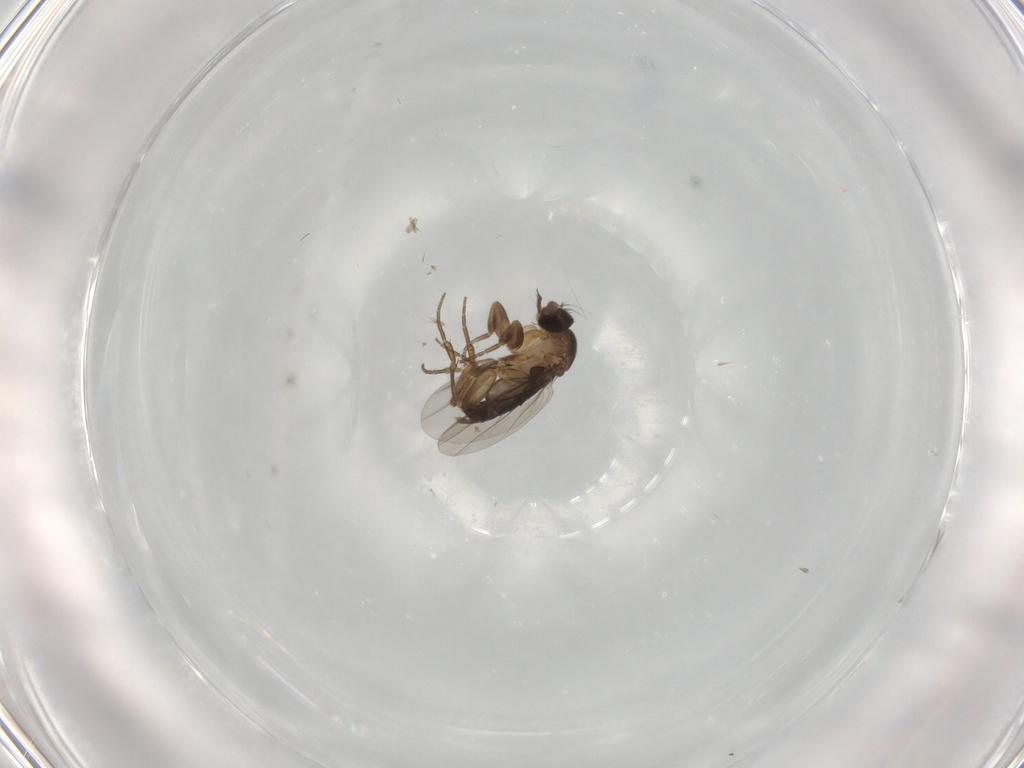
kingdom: Animalia
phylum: Arthropoda
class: Insecta
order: Diptera
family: Phoridae
